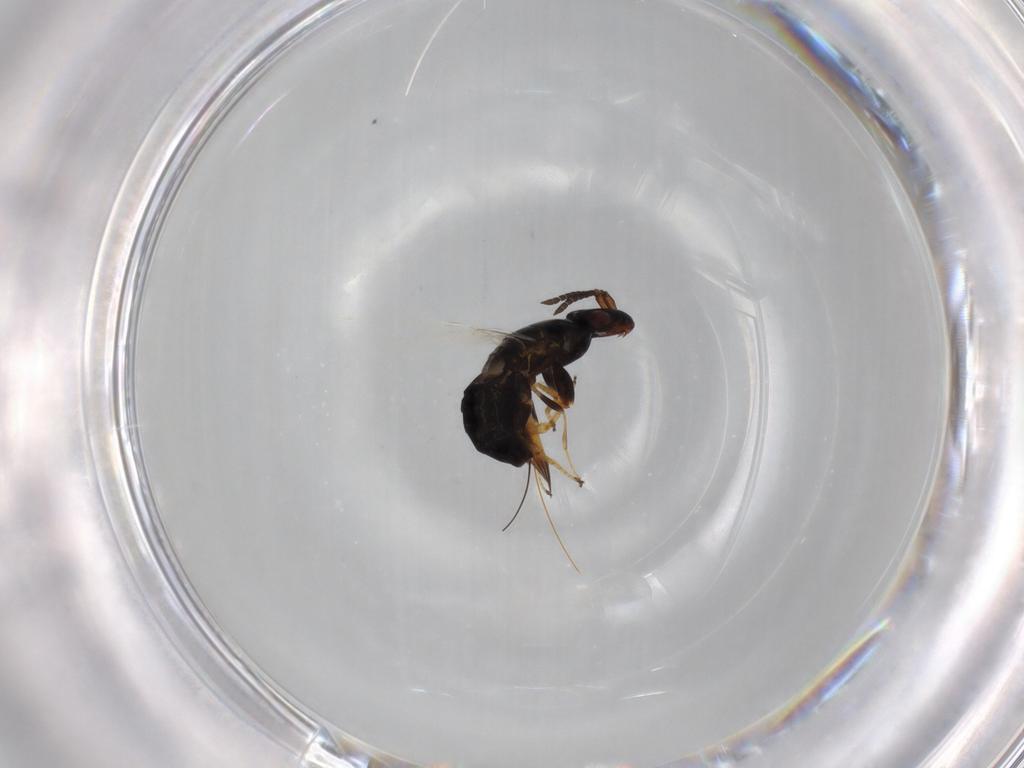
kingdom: Animalia
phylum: Arthropoda
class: Insecta
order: Hymenoptera
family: Agaonidae
